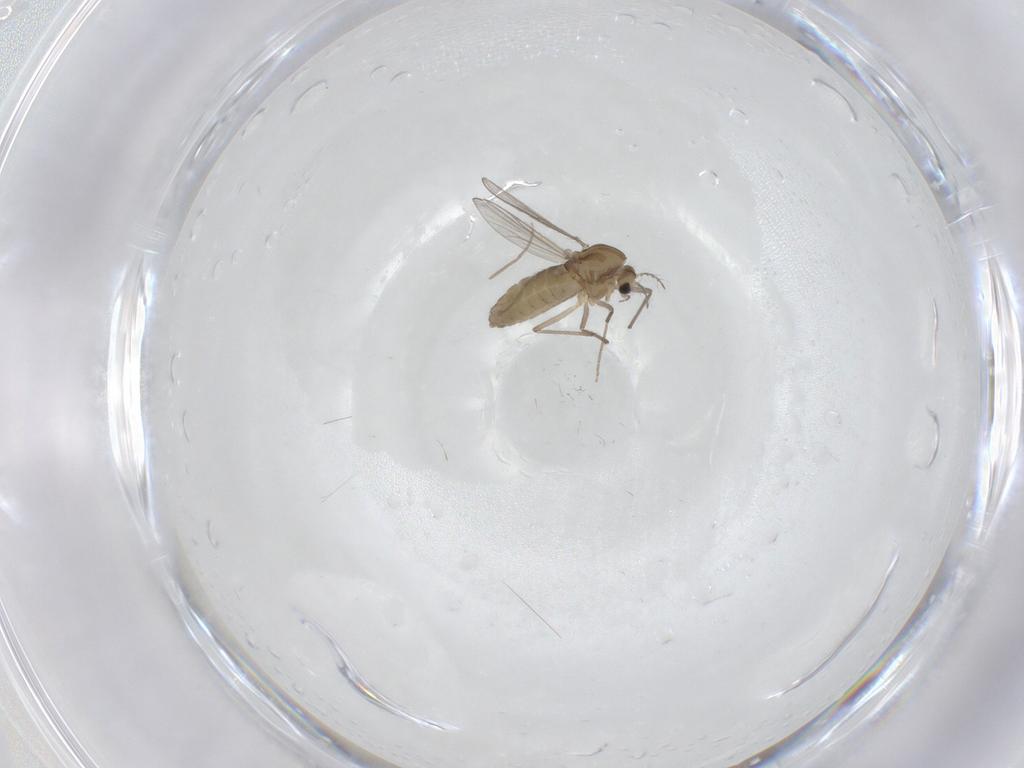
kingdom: Animalia
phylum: Arthropoda
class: Insecta
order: Diptera
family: Chironomidae
